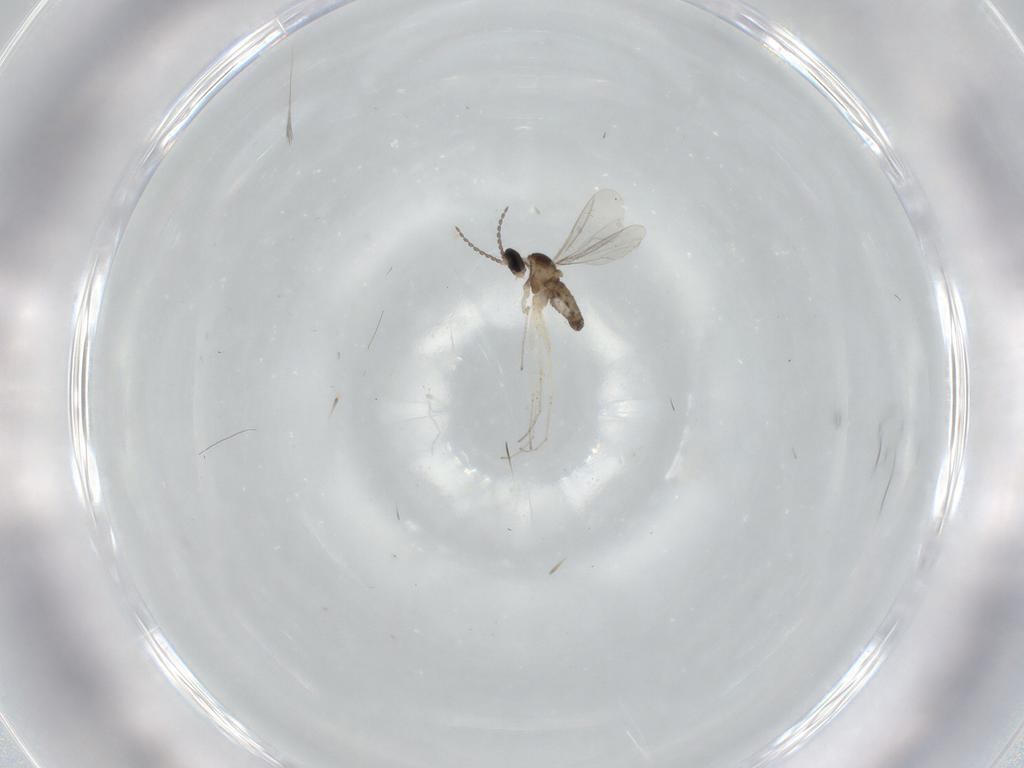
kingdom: Animalia
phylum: Arthropoda
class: Insecta
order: Diptera
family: Cecidomyiidae
